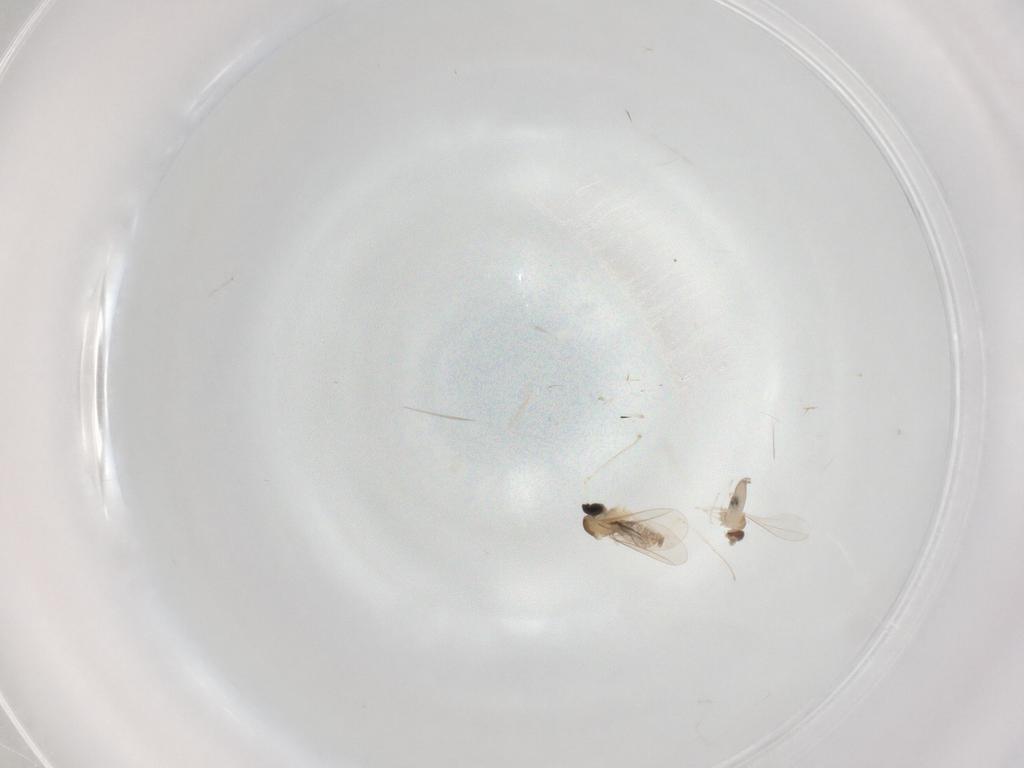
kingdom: Animalia
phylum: Arthropoda
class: Insecta
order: Diptera
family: Cecidomyiidae
